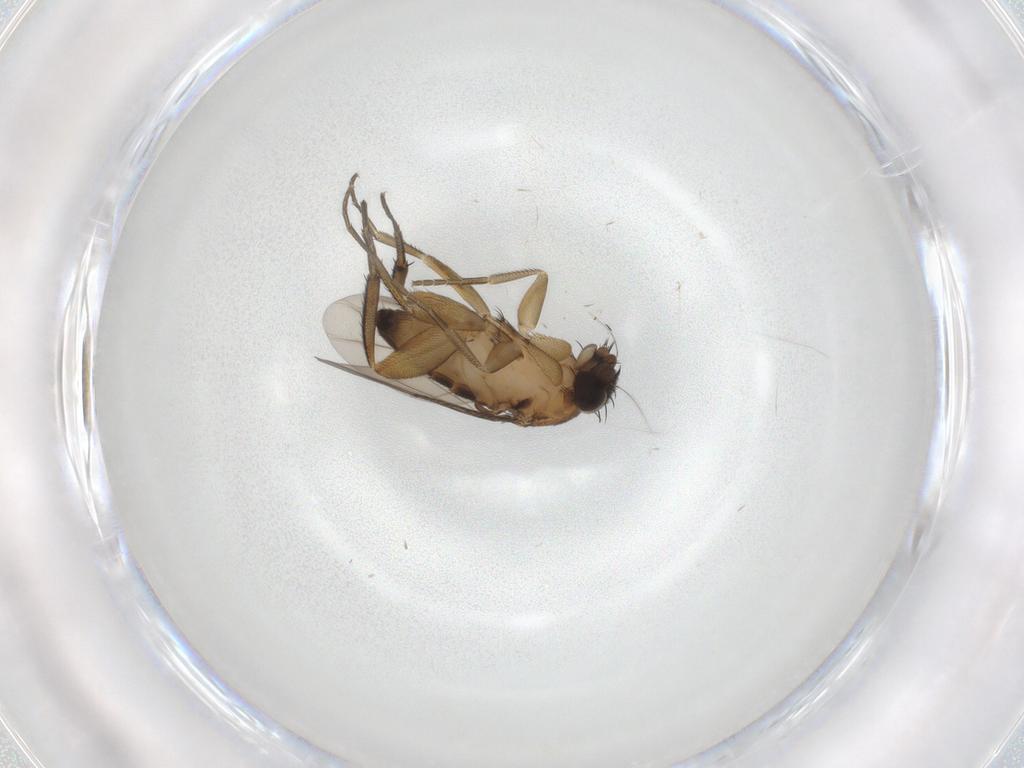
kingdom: Animalia
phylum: Arthropoda
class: Insecta
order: Diptera
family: Phoridae
